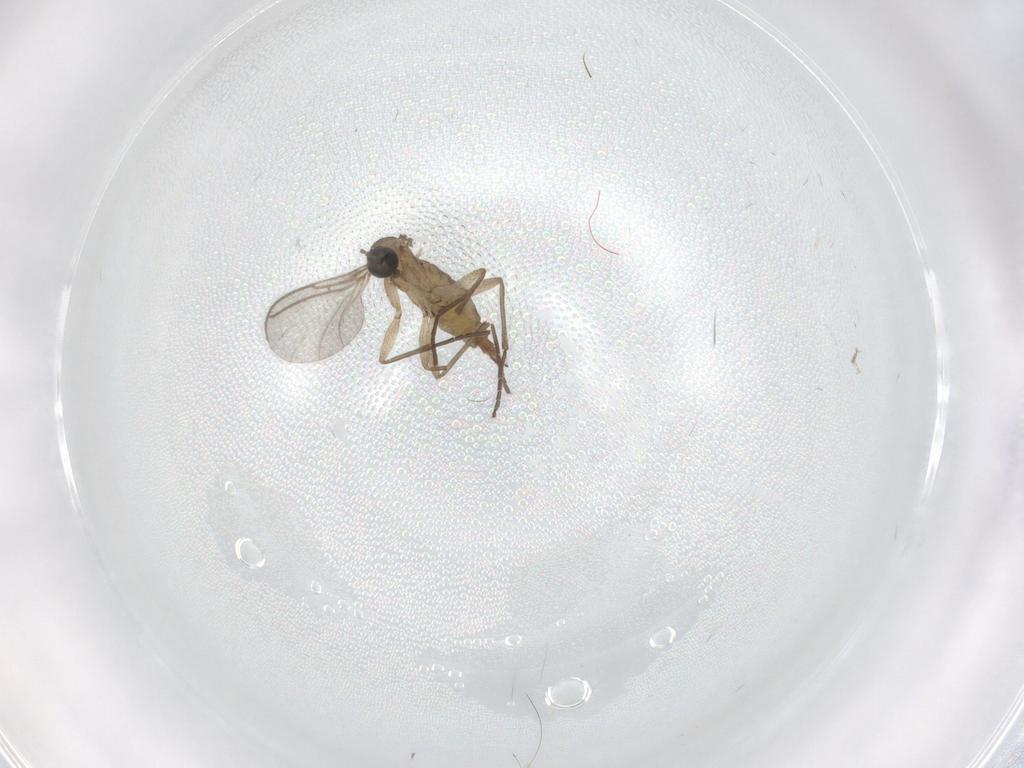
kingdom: Animalia
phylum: Arthropoda
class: Insecta
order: Diptera
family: Sciaridae
